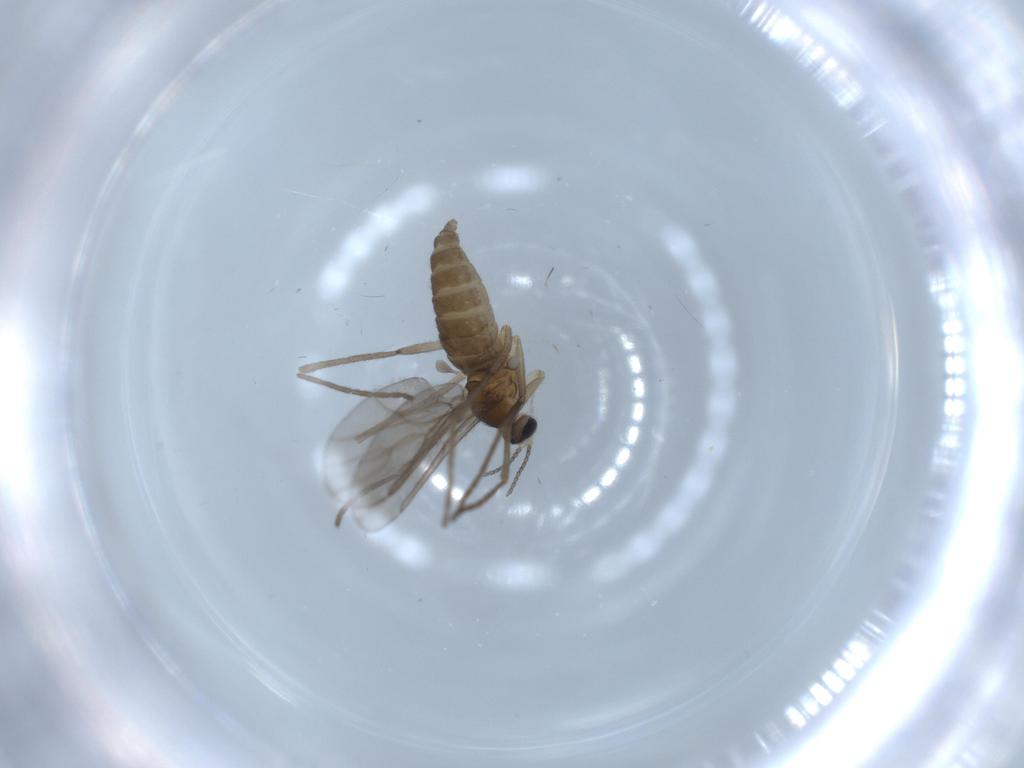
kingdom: Animalia
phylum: Arthropoda
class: Insecta
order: Diptera
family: Cecidomyiidae
